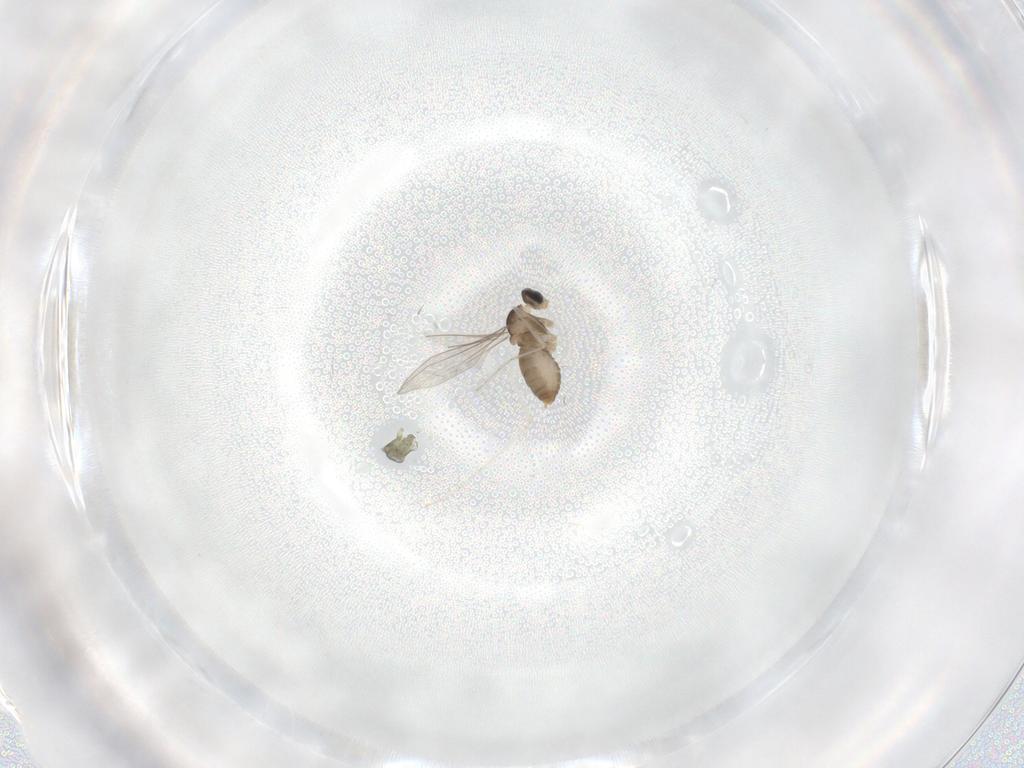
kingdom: Animalia
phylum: Arthropoda
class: Insecta
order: Diptera
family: Cecidomyiidae
